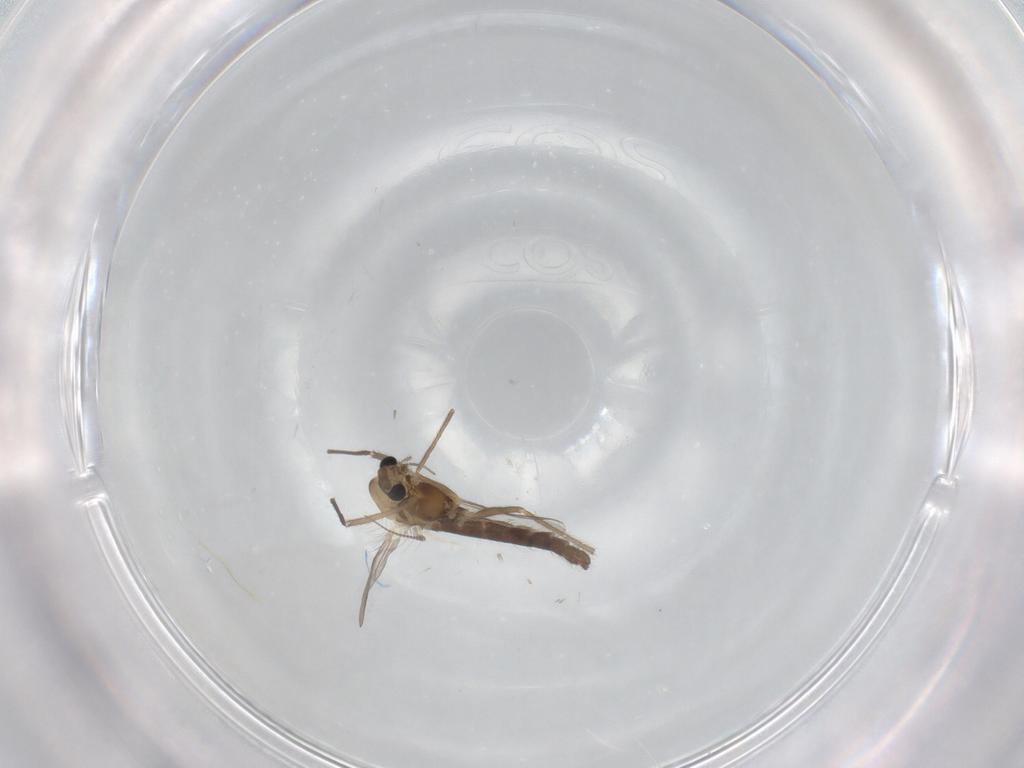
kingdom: Animalia
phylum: Arthropoda
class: Insecta
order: Diptera
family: Chironomidae
